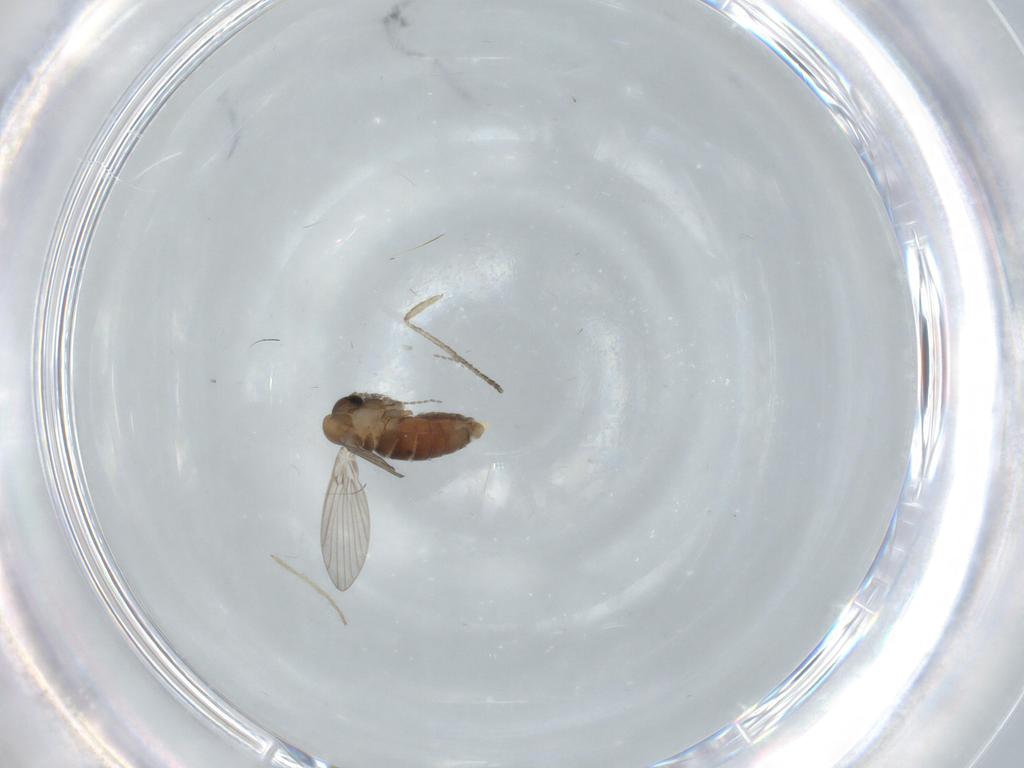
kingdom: Animalia
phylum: Arthropoda
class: Insecta
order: Diptera
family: Psychodidae
